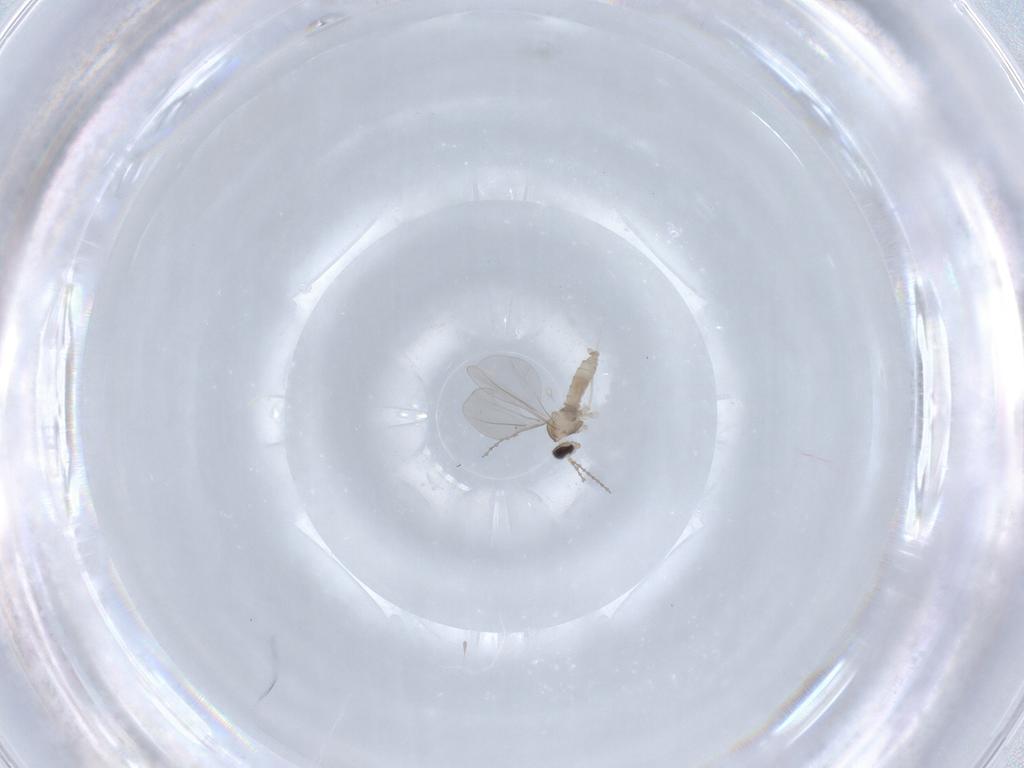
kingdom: Animalia
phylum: Arthropoda
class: Insecta
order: Diptera
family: Cecidomyiidae
